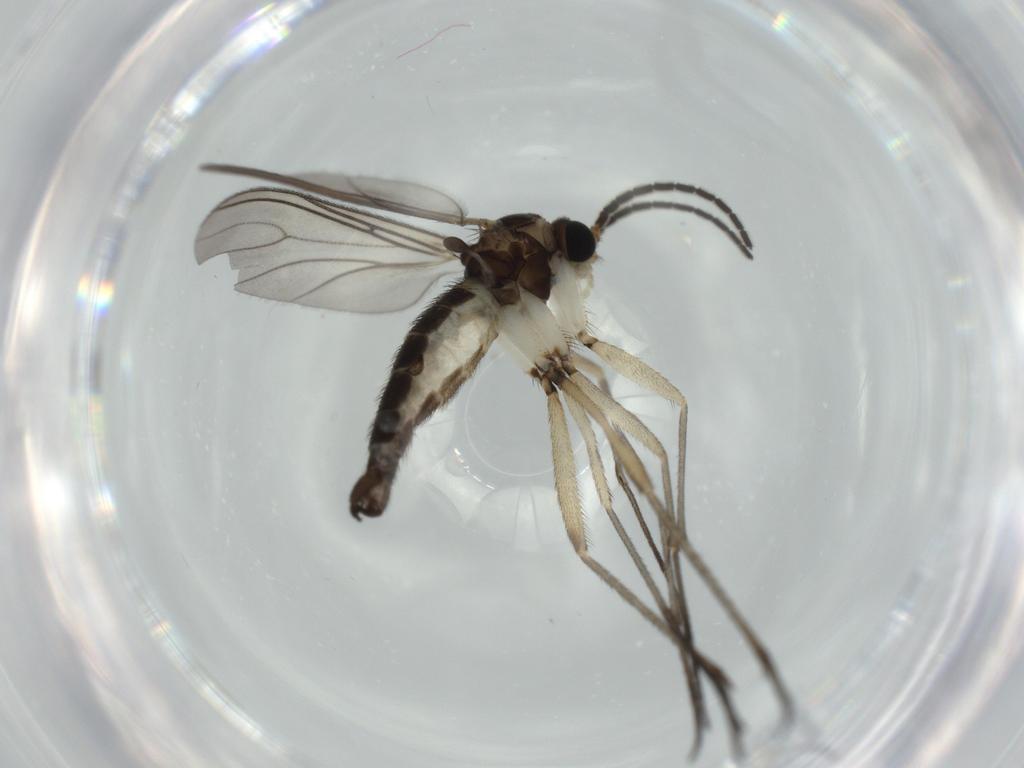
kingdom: Animalia
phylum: Arthropoda
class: Insecta
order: Diptera
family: Sciaridae
